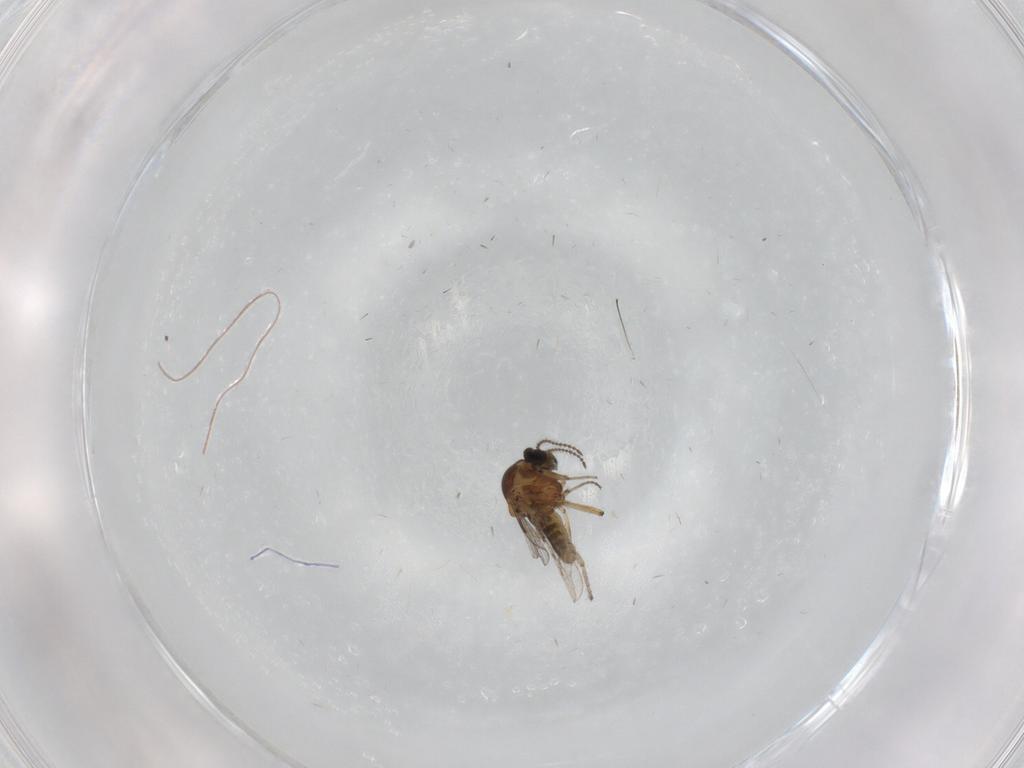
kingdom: Animalia
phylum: Arthropoda
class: Insecta
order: Diptera
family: Ceratopogonidae
